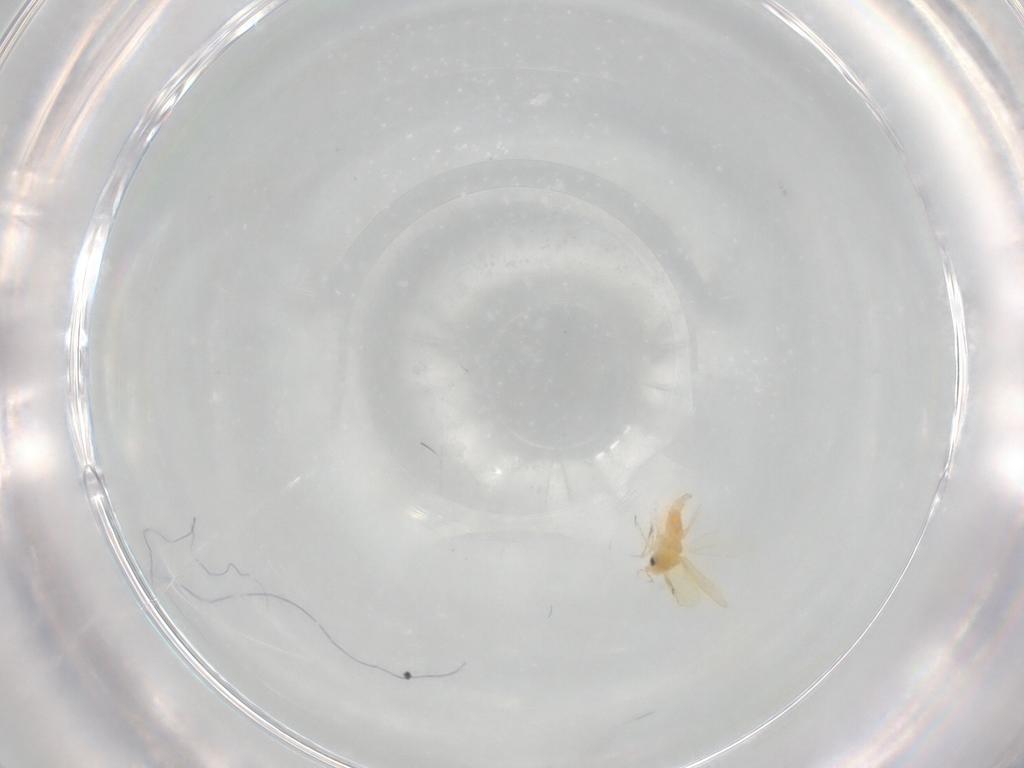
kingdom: Animalia
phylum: Arthropoda
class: Insecta
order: Hemiptera
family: Aleyrodidae
